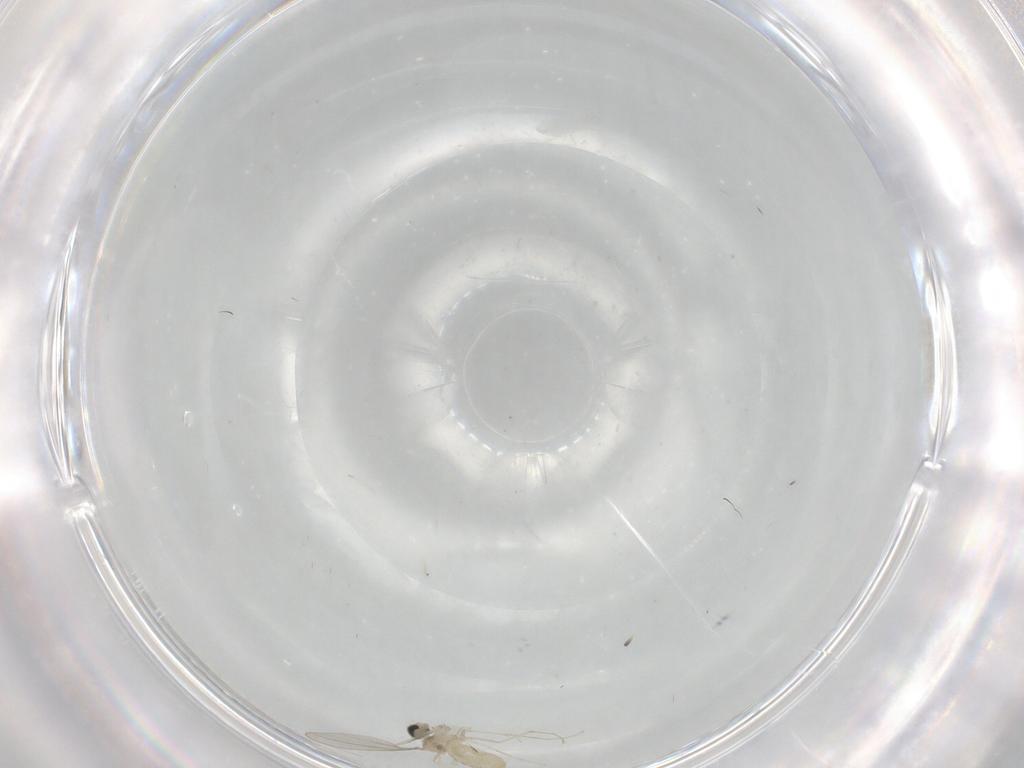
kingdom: Animalia
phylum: Arthropoda
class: Insecta
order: Diptera
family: Cecidomyiidae
